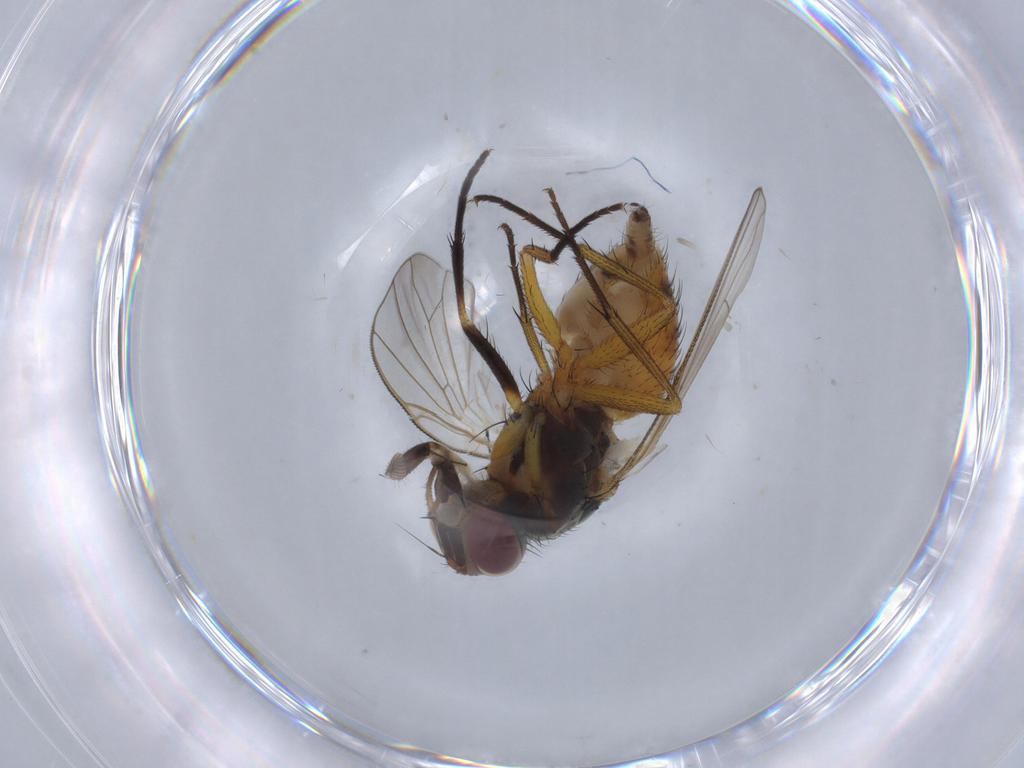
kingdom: Animalia
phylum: Arthropoda
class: Insecta
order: Diptera
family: Muscidae
